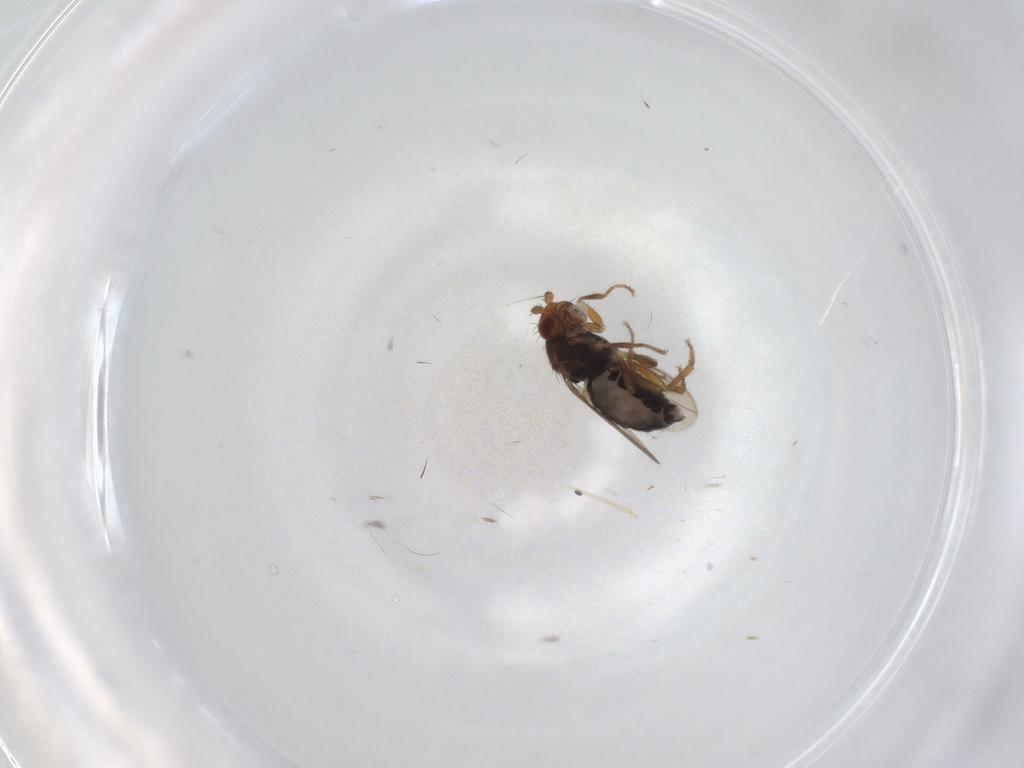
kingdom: Animalia
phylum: Arthropoda
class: Insecta
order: Diptera
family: Sphaeroceridae
